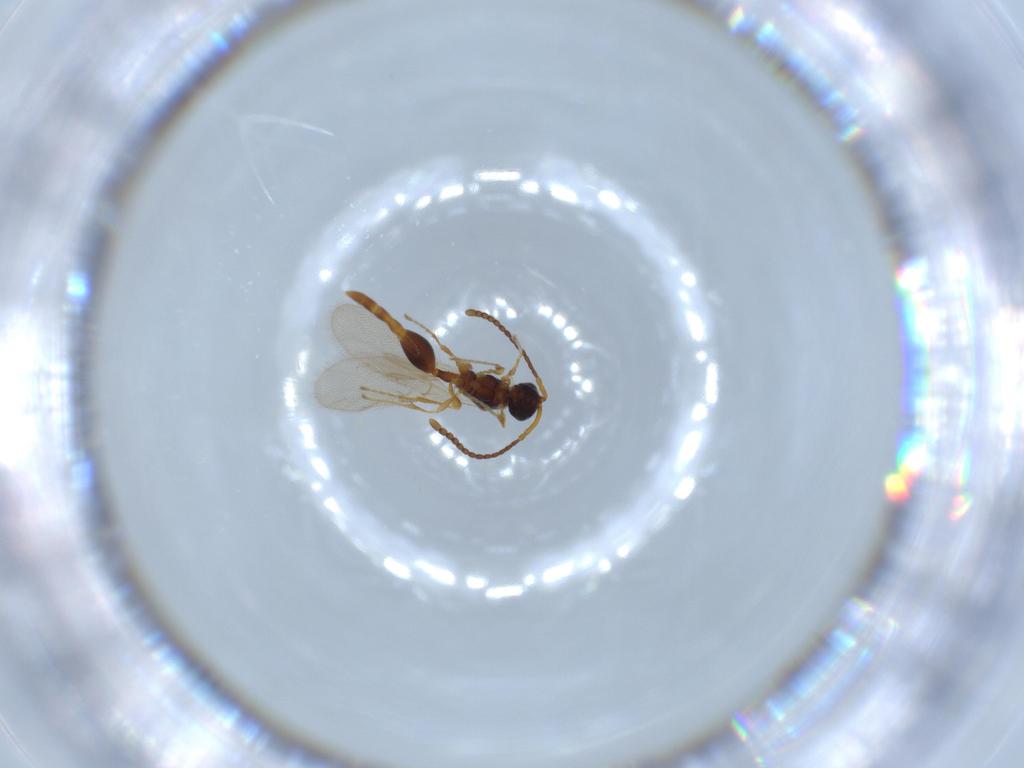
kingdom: Animalia
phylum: Arthropoda
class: Insecta
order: Hymenoptera
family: Diapriidae
